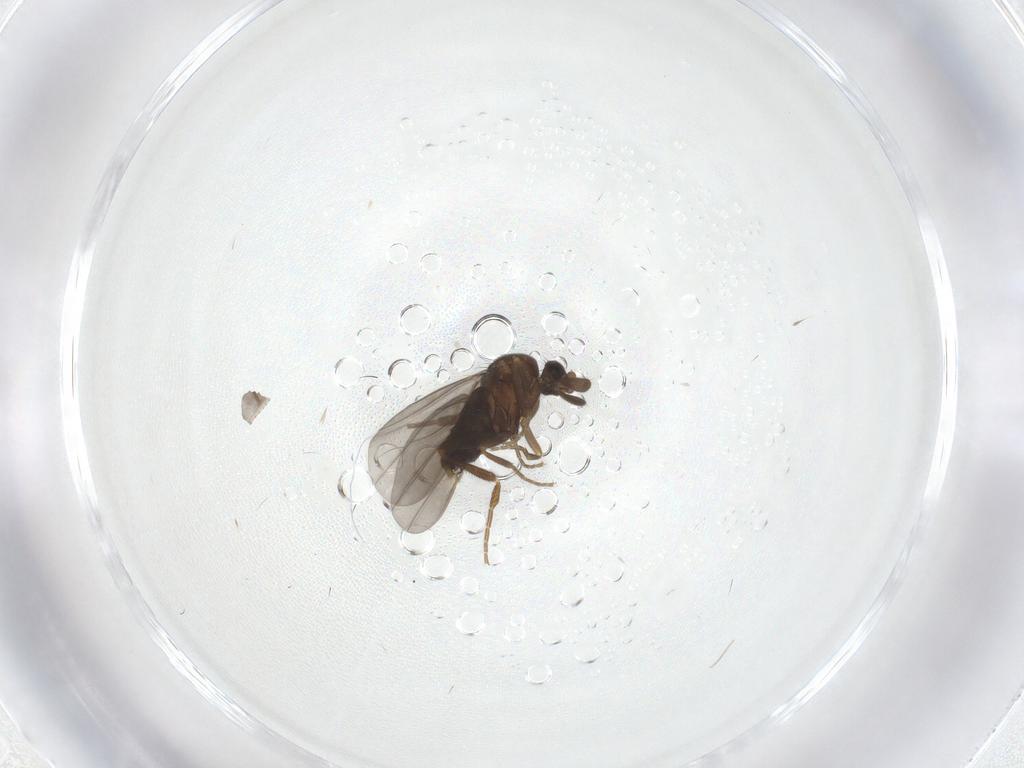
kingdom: Animalia
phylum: Arthropoda
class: Insecta
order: Diptera
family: Phoridae
